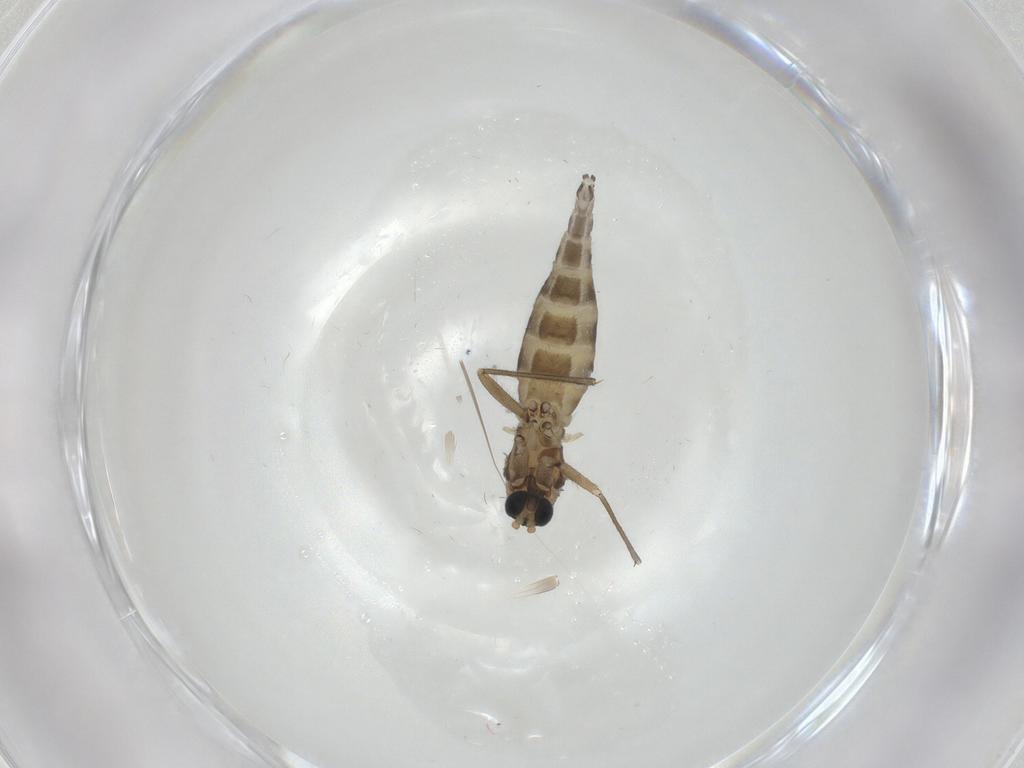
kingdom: Animalia
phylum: Arthropoda
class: Insecta
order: Diptera
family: Sciaridae
